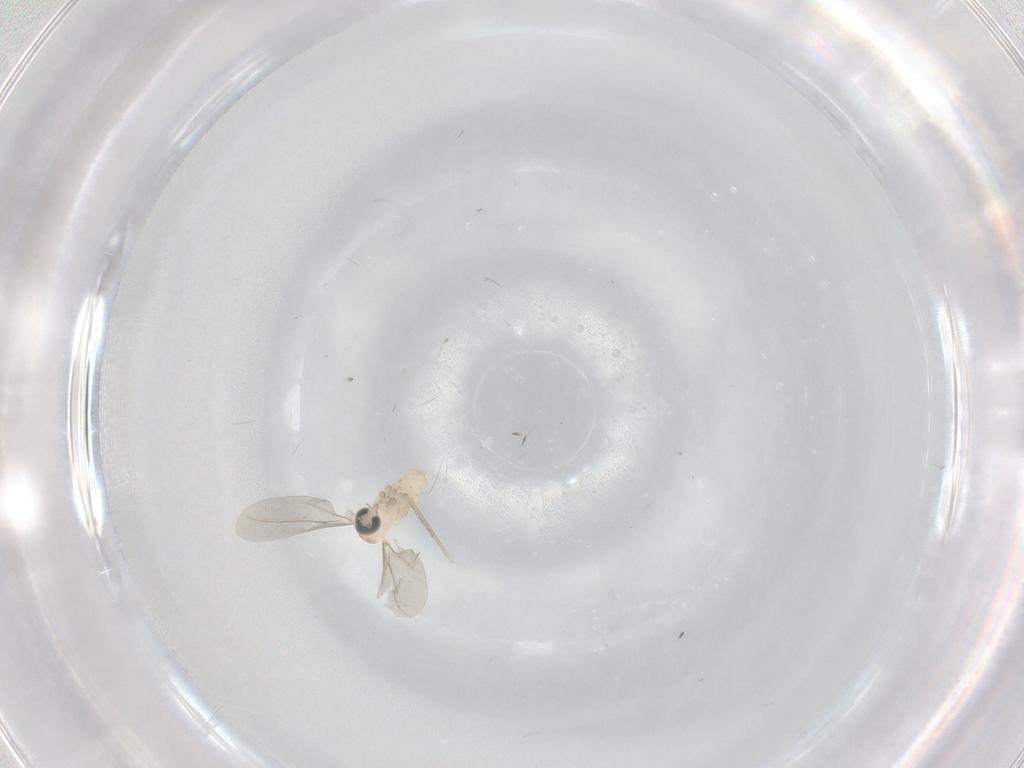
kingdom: Animalia
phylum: Arthropoda
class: Insecta
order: Diptera
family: Cecidomyiidae
